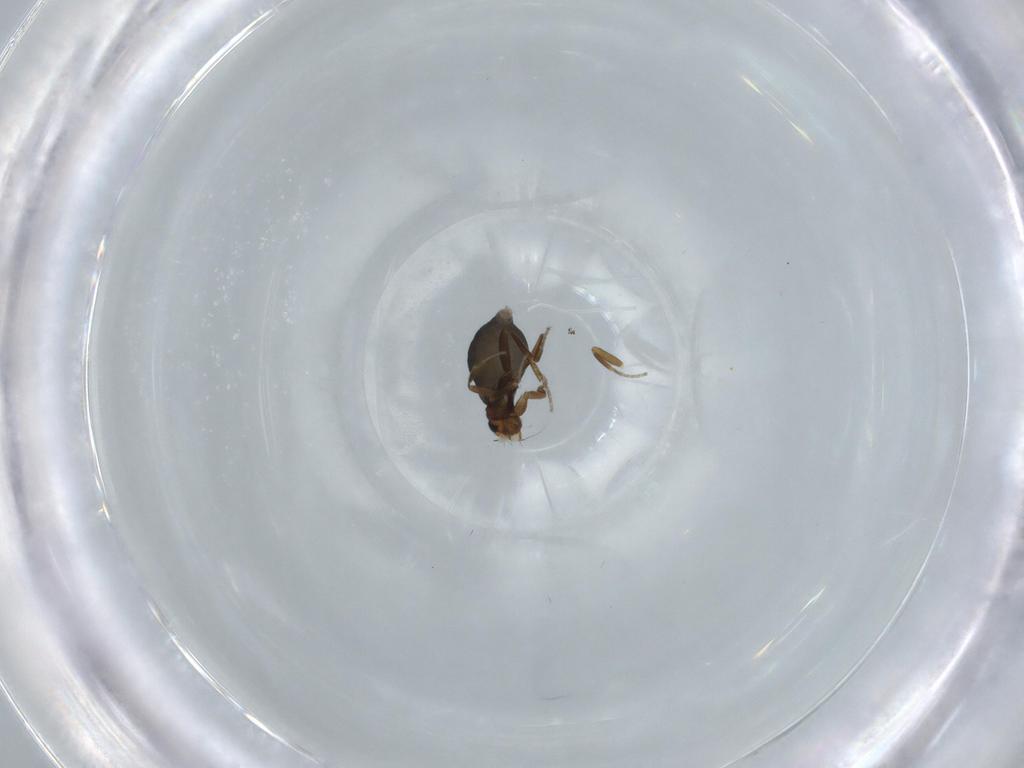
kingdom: Animalia
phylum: Arthropoda
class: Insecta
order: Diptera
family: Phoridae
